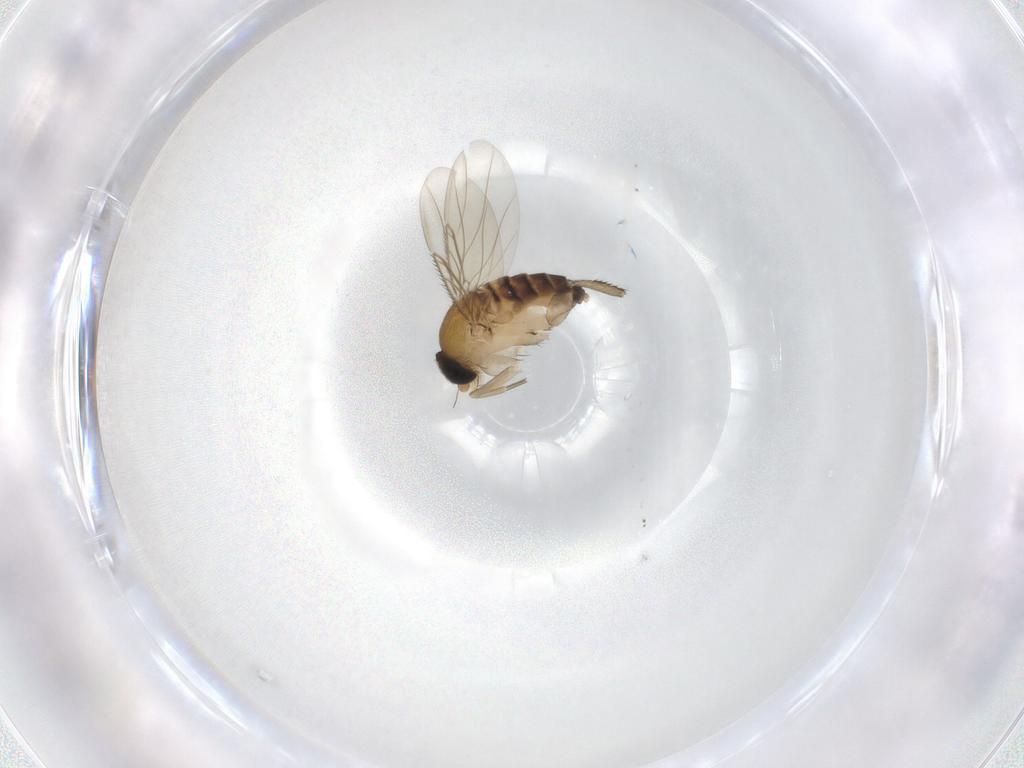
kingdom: Animalia
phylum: Arthropoda
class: Insecta
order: Diptera
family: Phoridae
